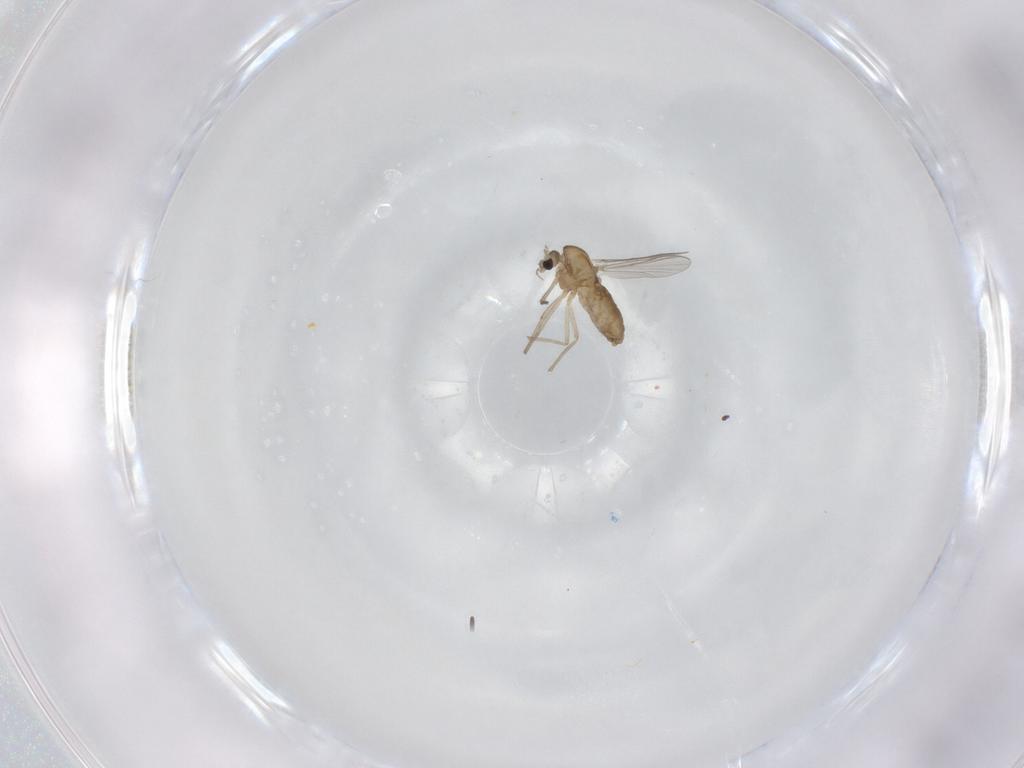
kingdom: Animalia
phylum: Arthropoda
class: Insecta
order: Diptera
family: Chironomidae
